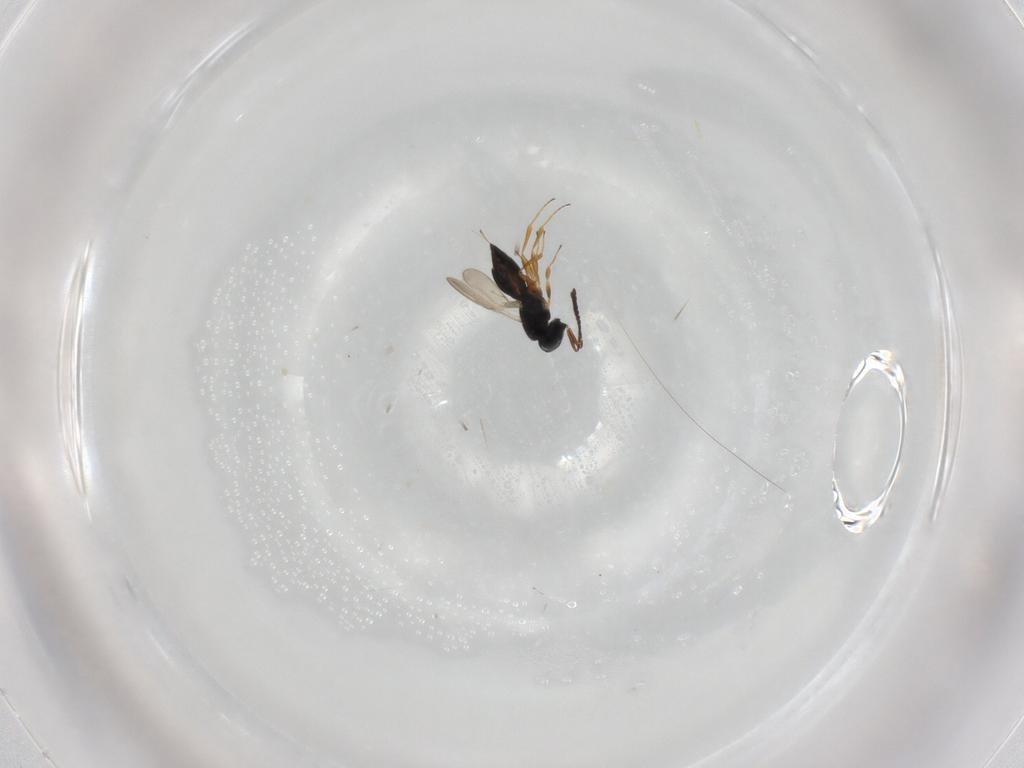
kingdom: Animalia
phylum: Arthropoda
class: Insecta
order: Hymenoptera
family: Scelionidae
